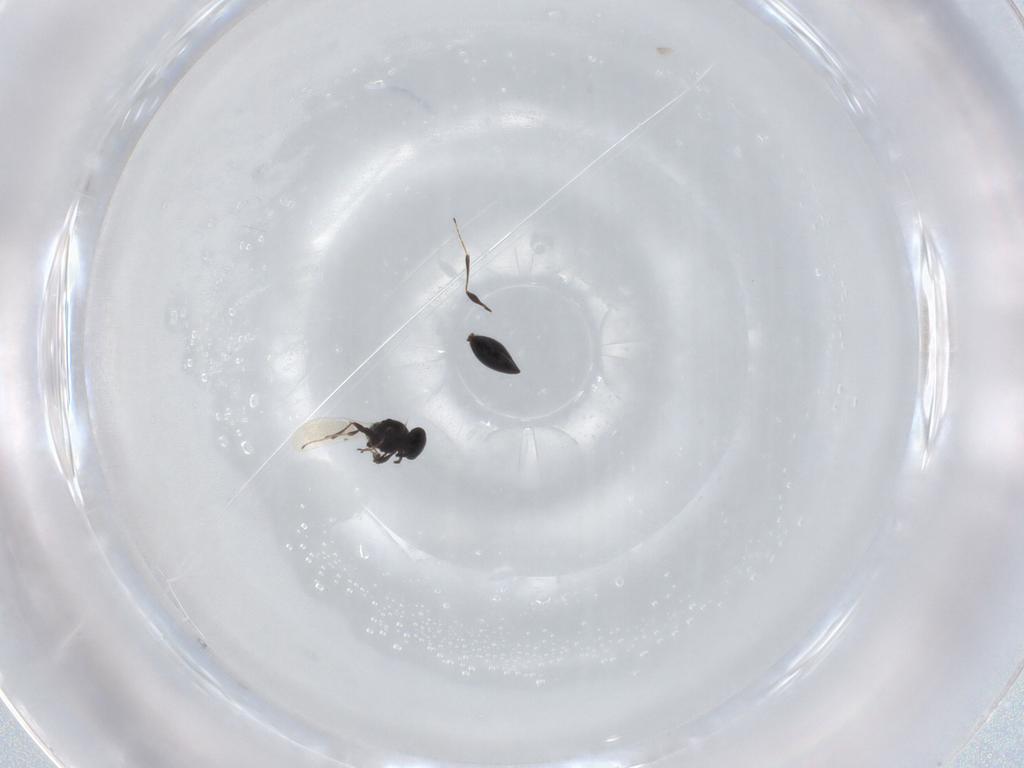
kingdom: Animalia
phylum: Arthropoda
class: Insecta
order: Hymenoptera
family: Platygastridae
